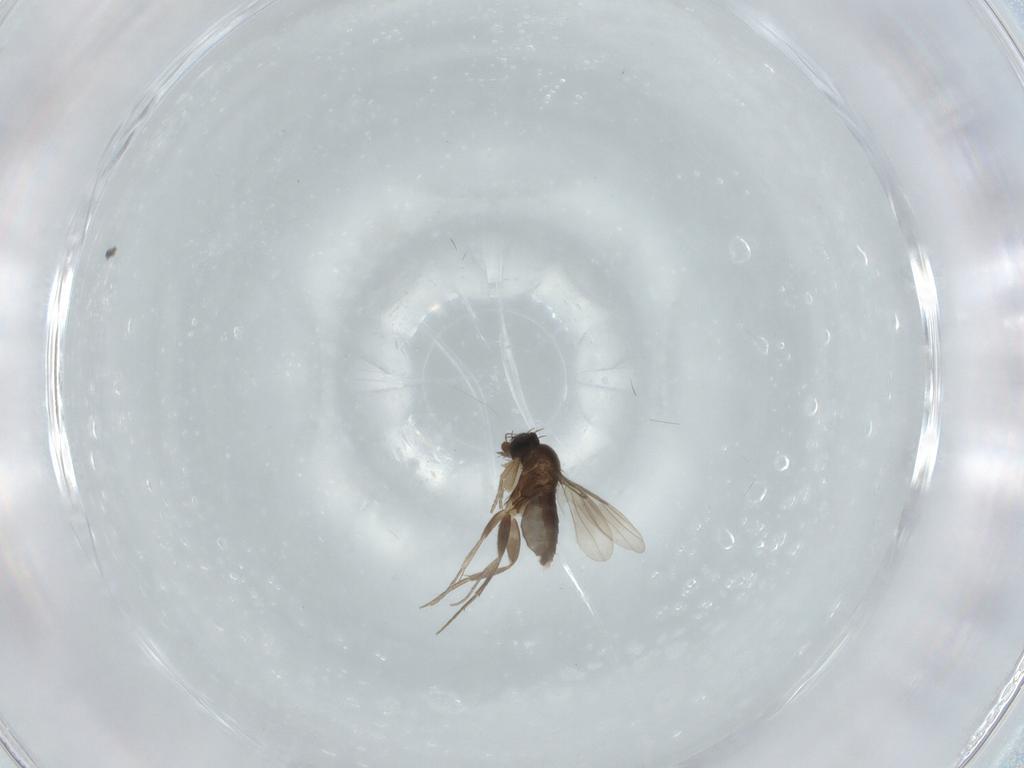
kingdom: Animalia
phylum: Arthropoda
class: Insecta
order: Diptera
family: Phoridae
